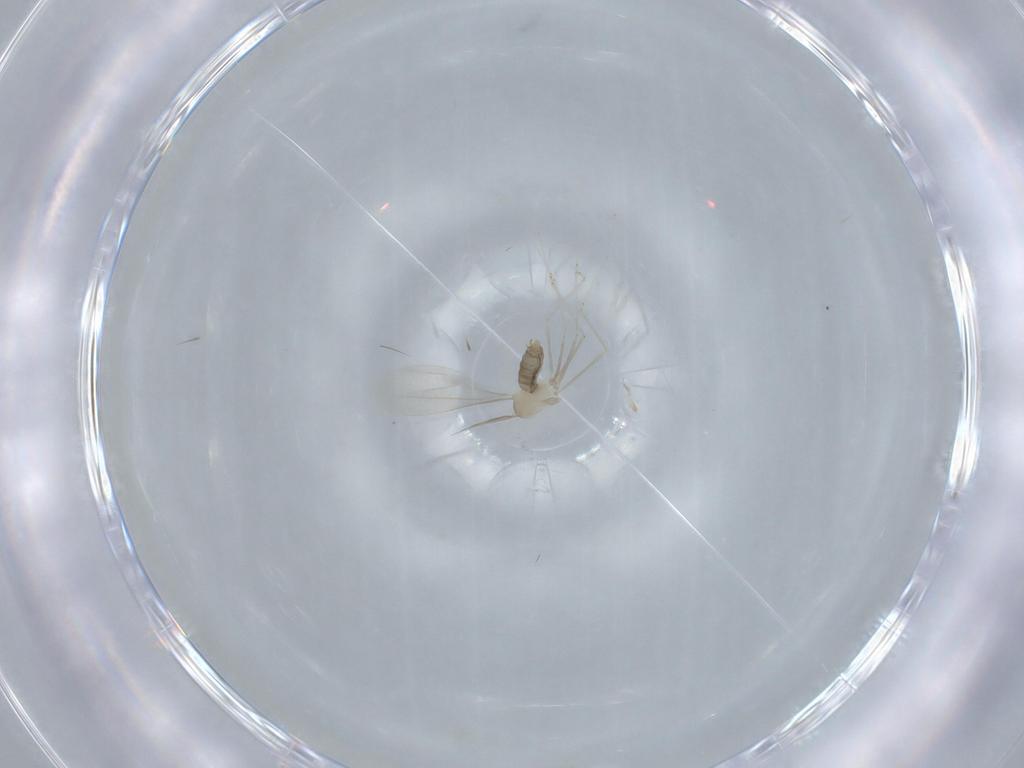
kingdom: Animalia
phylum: Arthropoda
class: Insecta
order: Diptera
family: Cecidomyiidae
